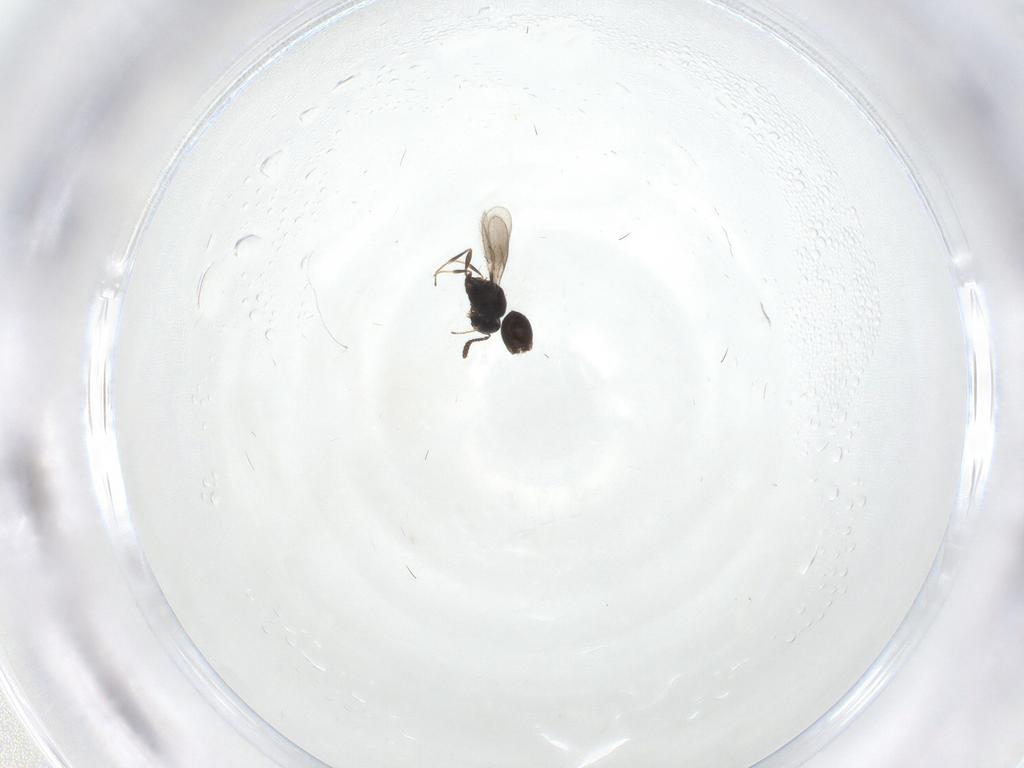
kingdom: Animalia
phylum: Arthropoda
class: Insecta
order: Hymenoptera
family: Scelionidae
